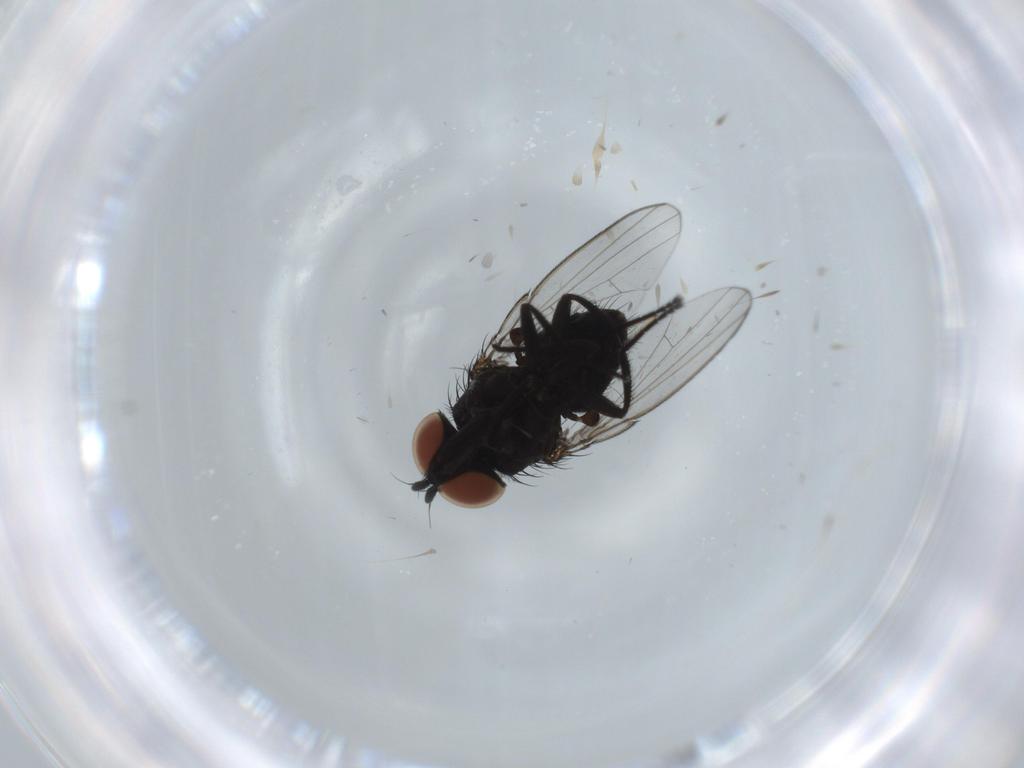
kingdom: Animalia
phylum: Arthropoda
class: Insecta
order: Diptera
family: Milichiidae
